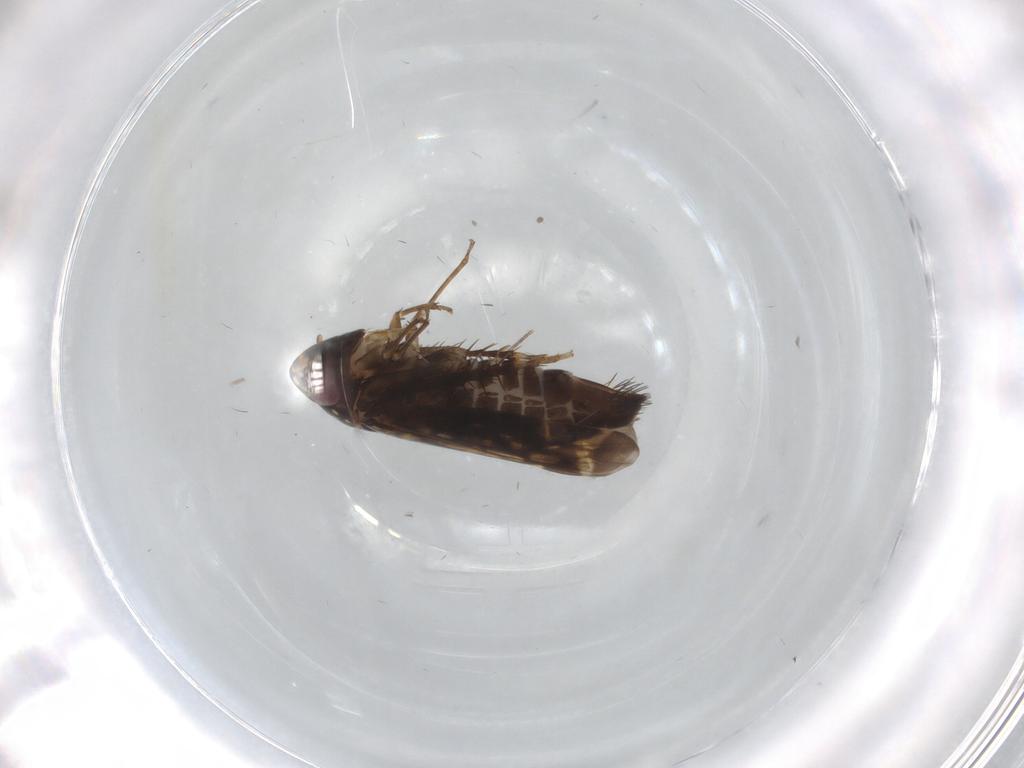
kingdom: Animalia
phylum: Arthropoda
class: Insecta
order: Hemiptera
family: Cicadellidae
